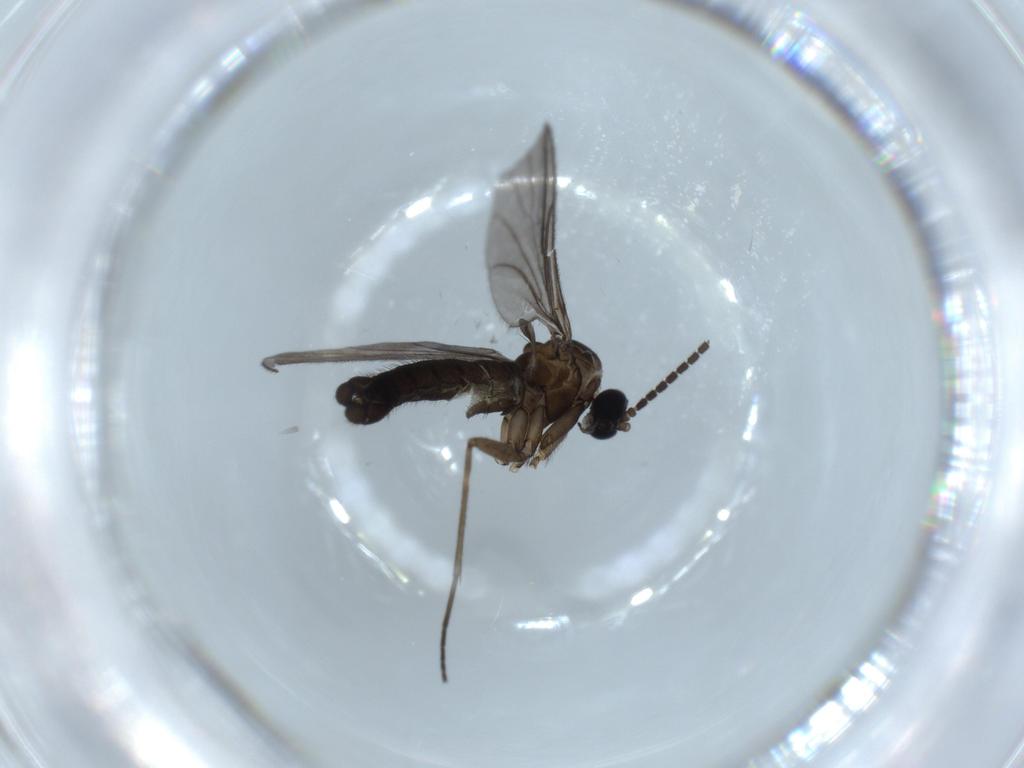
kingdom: Animalia
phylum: Arthropoda
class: Insecta
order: Diptera
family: Sciaridae
